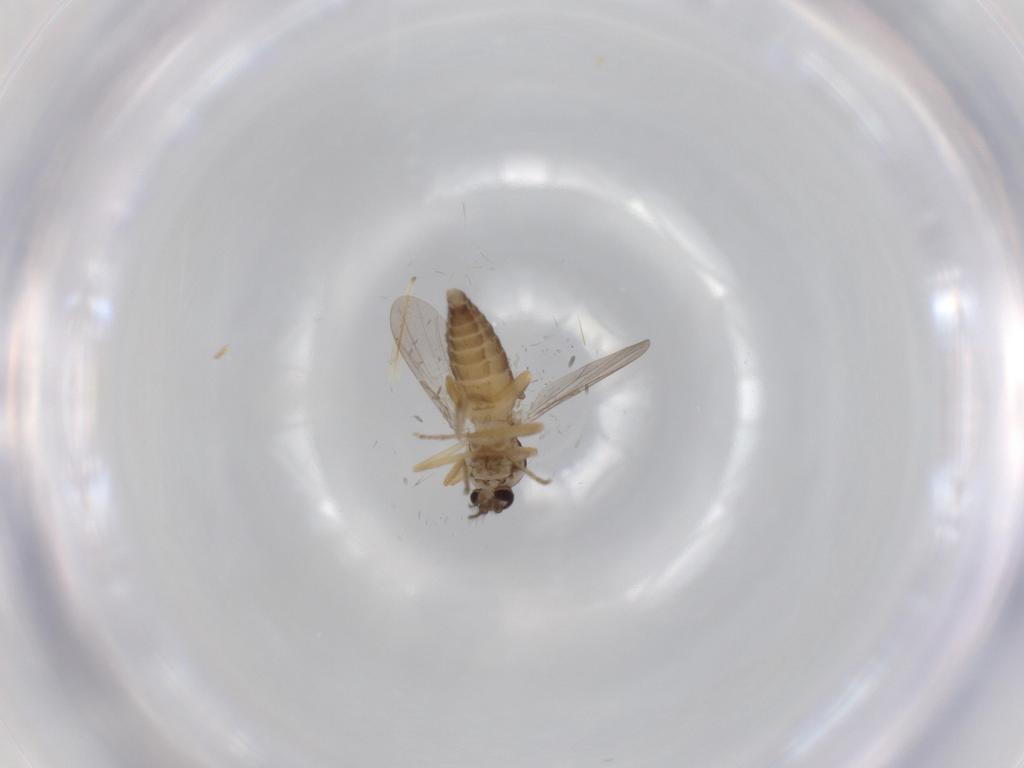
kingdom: Animalia
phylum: Arthropoda
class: Insecta
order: Diptera
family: Ceratopogonidae
